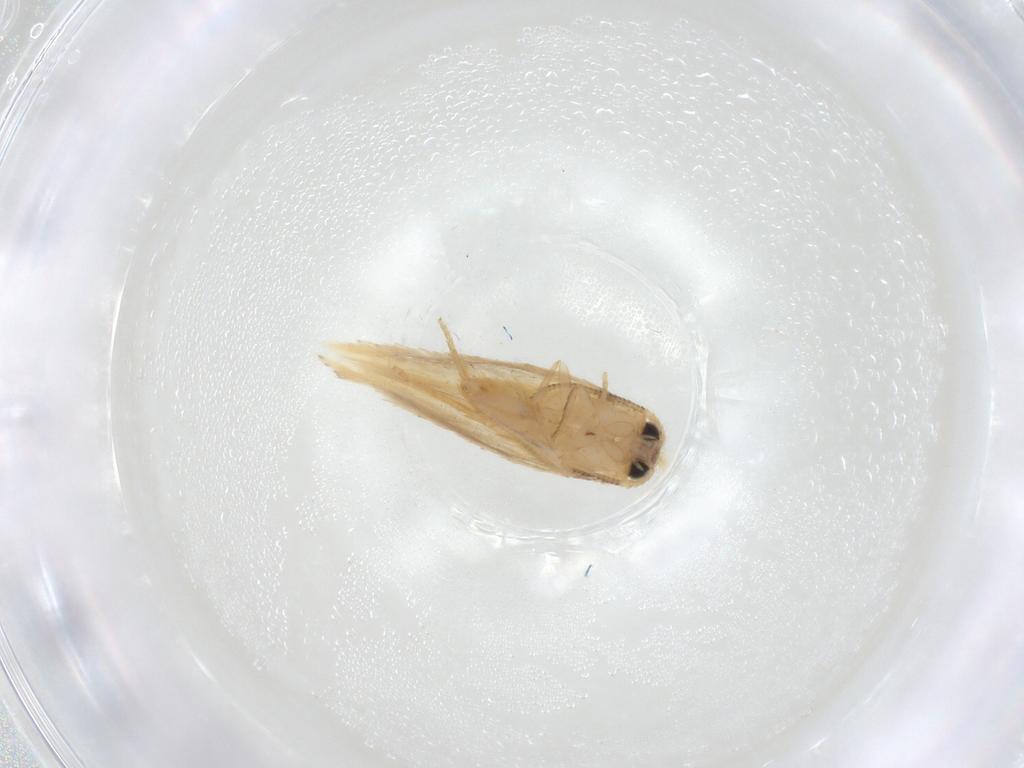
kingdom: Animalia
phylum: Arthropoda
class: Insecta
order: Lepidoptera
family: Nepticulidae
